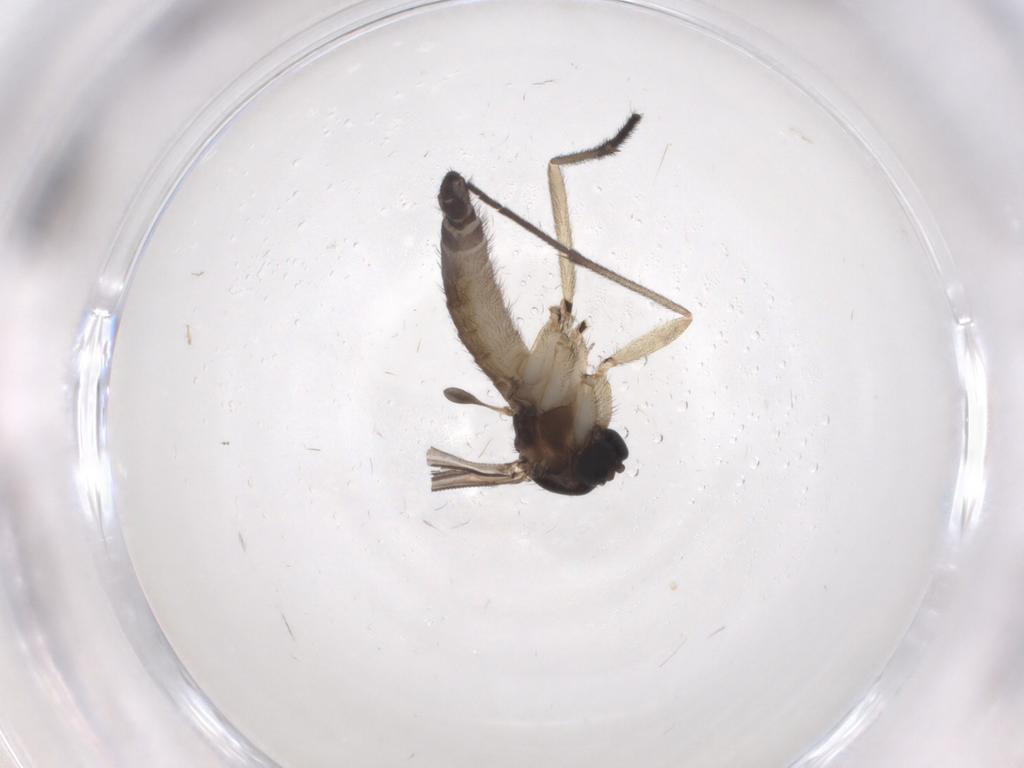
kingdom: Animalia
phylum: Arthropoda
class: Insecta
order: Diptera
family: Sciaridae
